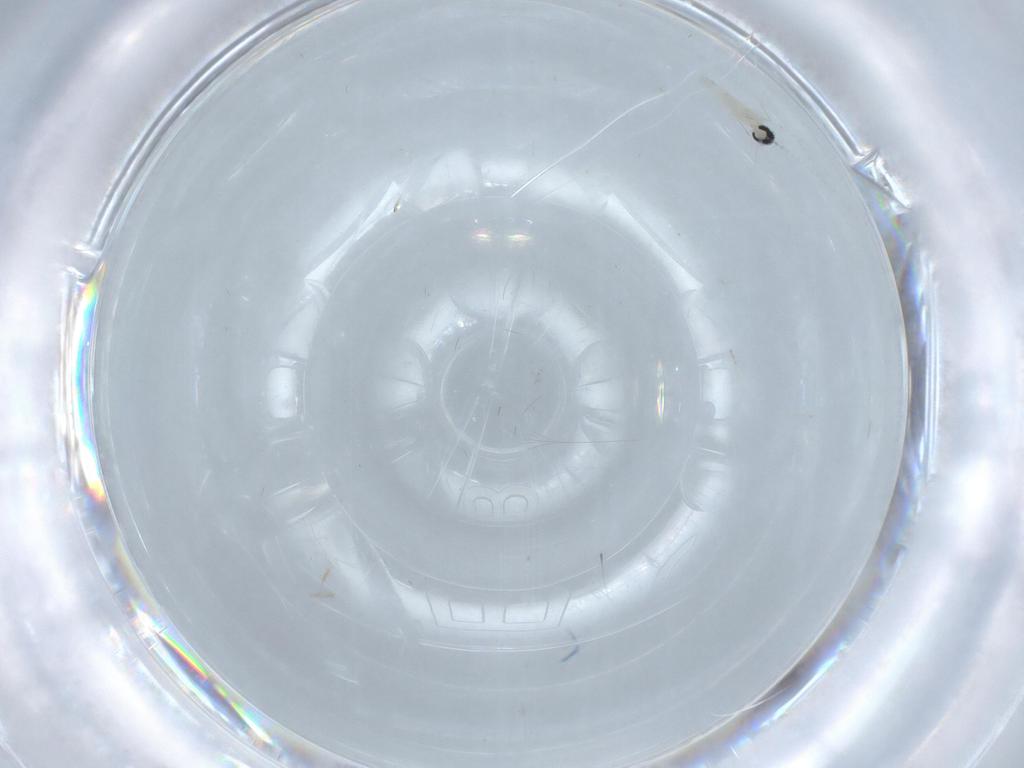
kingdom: Animalia
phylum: Arthropoda
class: Insecta
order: Diptera
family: Cecidomyiidae
